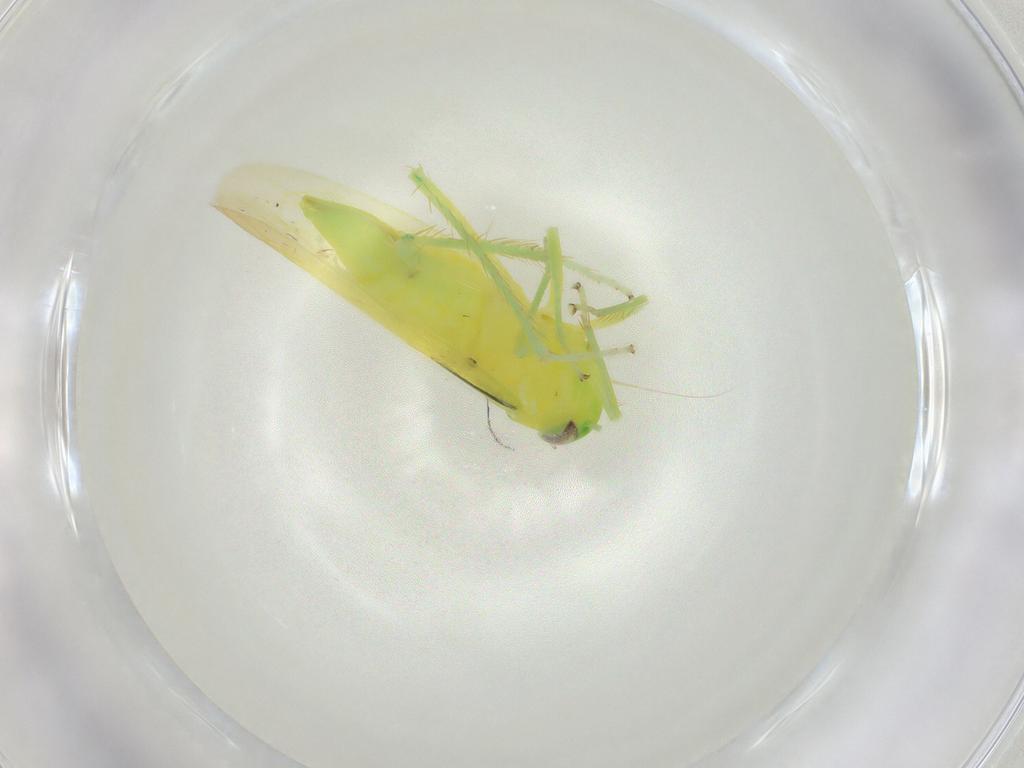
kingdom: Animalia
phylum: Arthropoda
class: Insecta
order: Hemiptera
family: Cicadellidae
